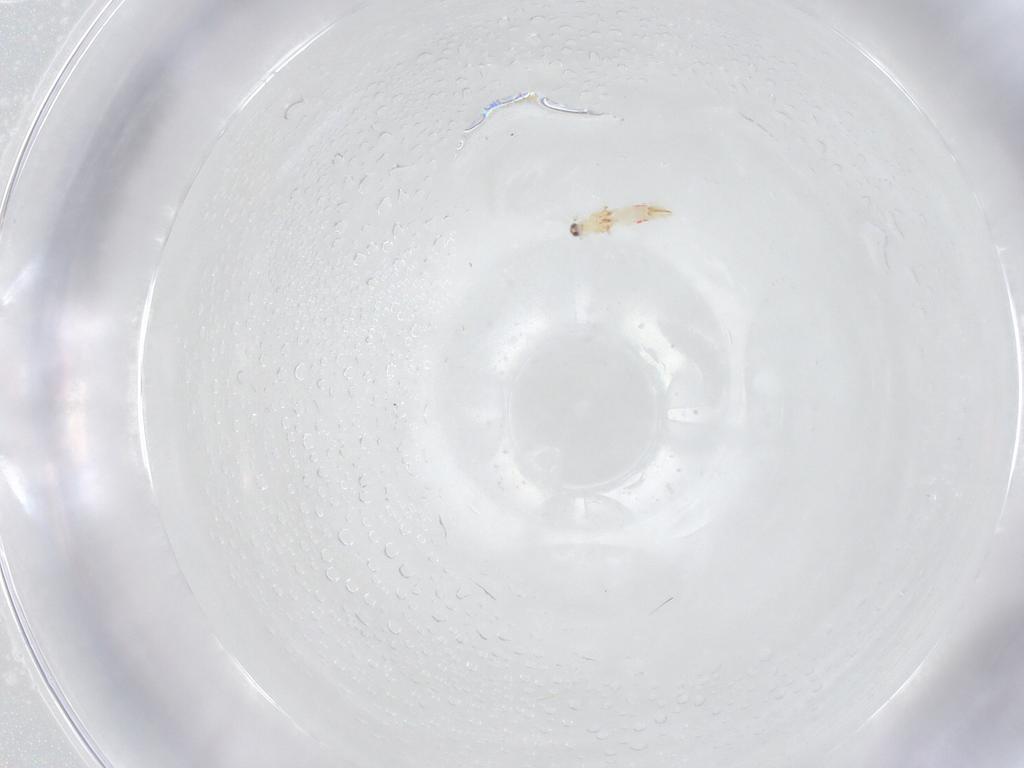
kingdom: Animalia
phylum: Arthropoda
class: Insecta
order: Diptera
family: Cecidomyiidae
